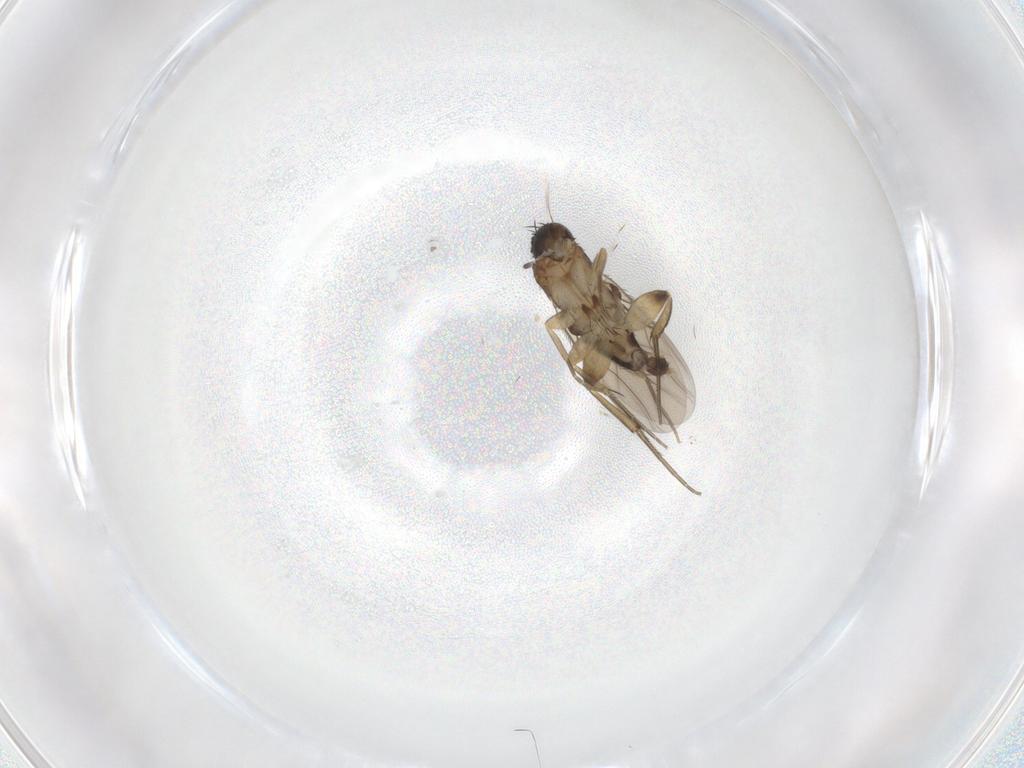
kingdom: Animalia
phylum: Arthropoda
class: Insecta
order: Diptera
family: Phoridae
